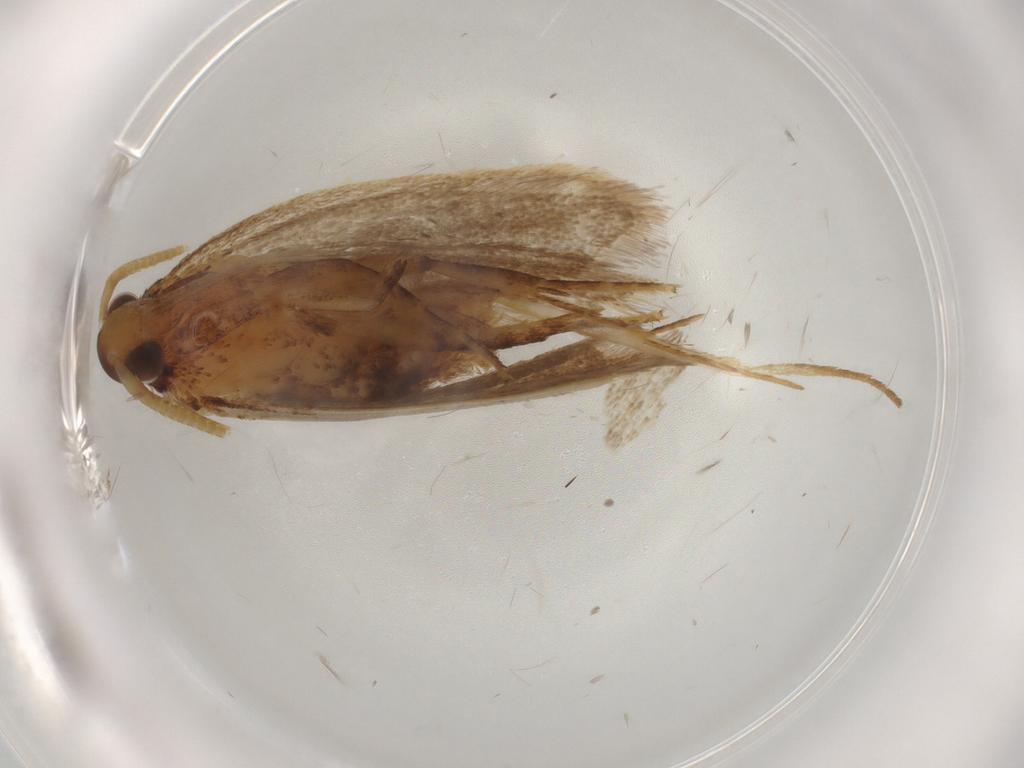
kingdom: Animalia
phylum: Arthropoda
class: Insecta
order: Lepidoptera
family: Lecithoceridae
